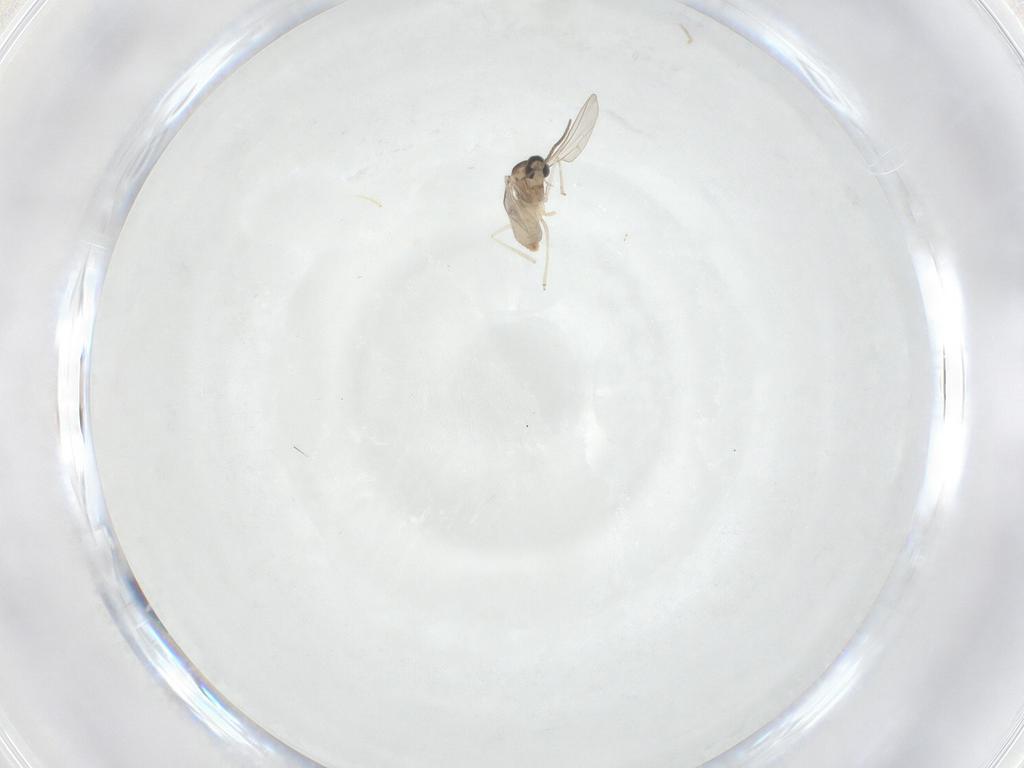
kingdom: Animalia
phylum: Arthropoda
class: Insecta
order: Diptera
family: Cecidomyiidae
